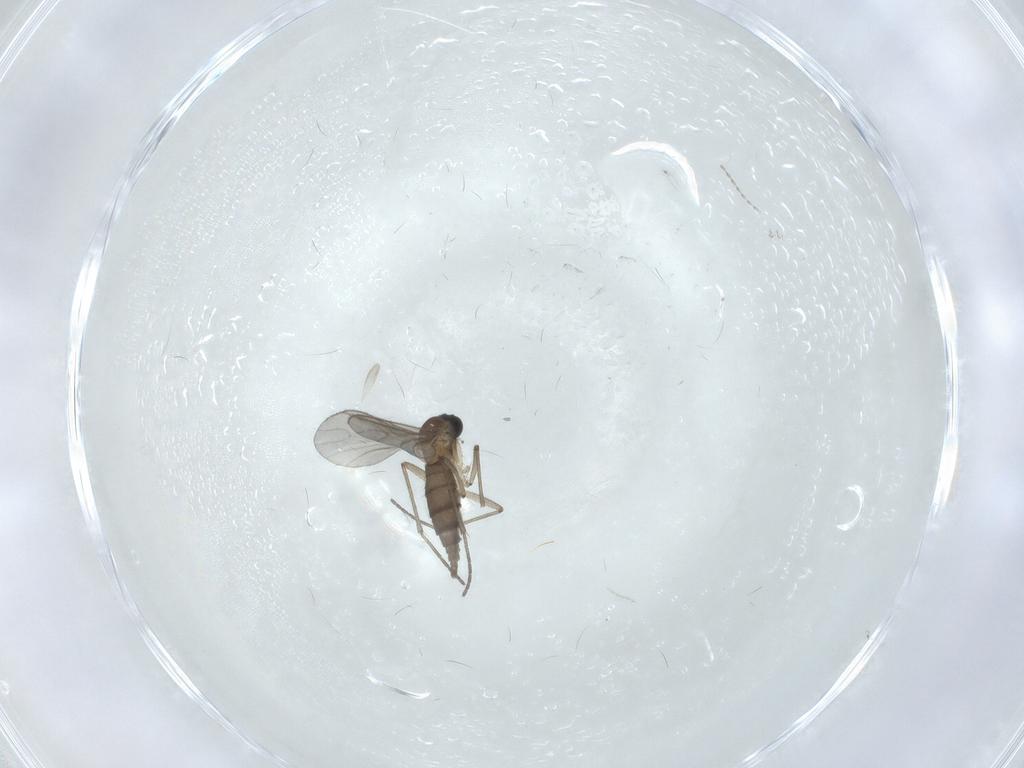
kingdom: Animalia
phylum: Arthropoda
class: Insecta
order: Diptera
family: Sciaridae
